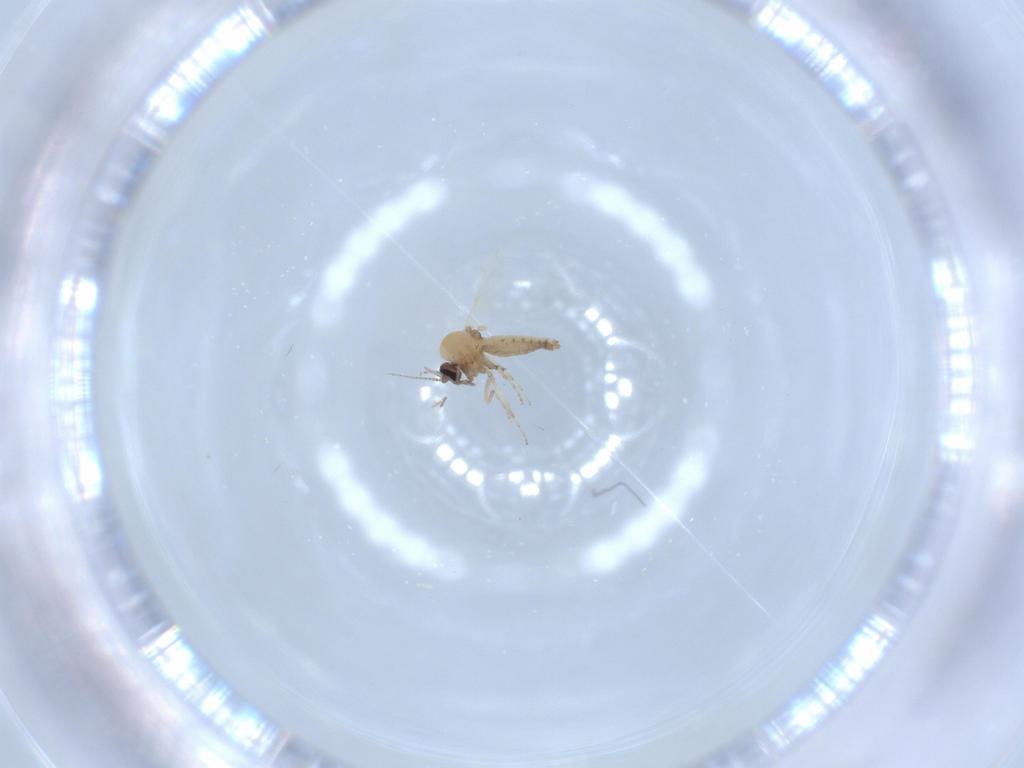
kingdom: Animalia
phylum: Arthropoda
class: Insecta
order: Diptera
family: Ceratopogonidae
